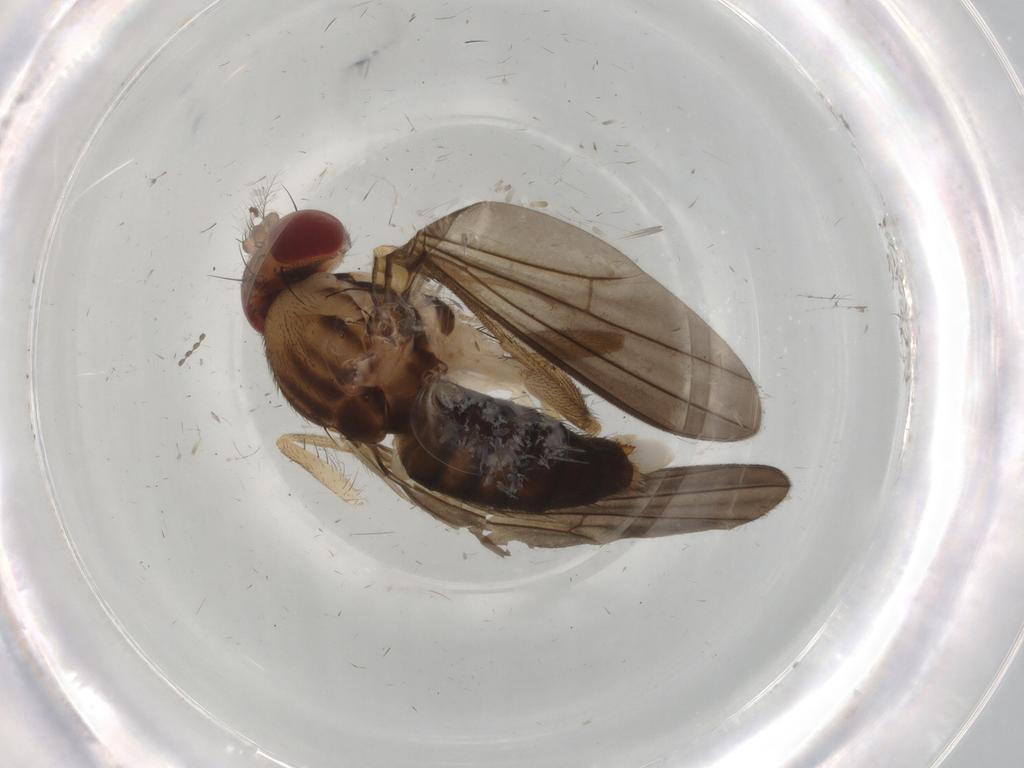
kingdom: Animalia
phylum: Arthropoda
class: Insecta
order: Diptera
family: Drosophilidae
